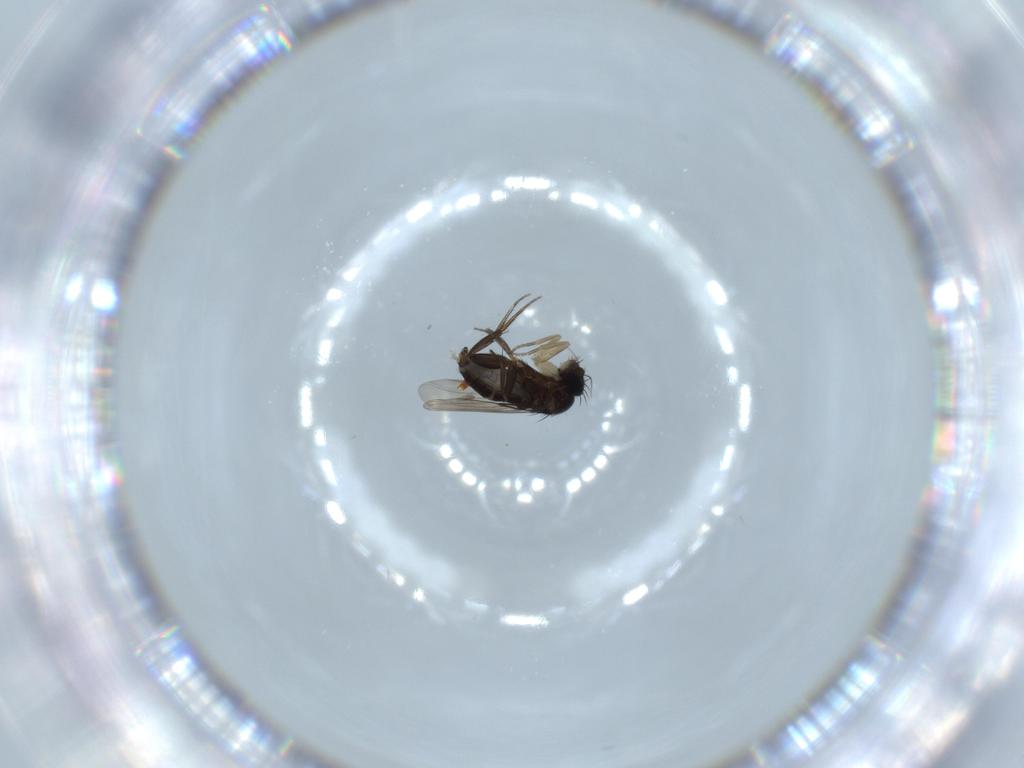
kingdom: Animalia
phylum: Arthropoda
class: Insecta
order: Diptera
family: Phoridae
